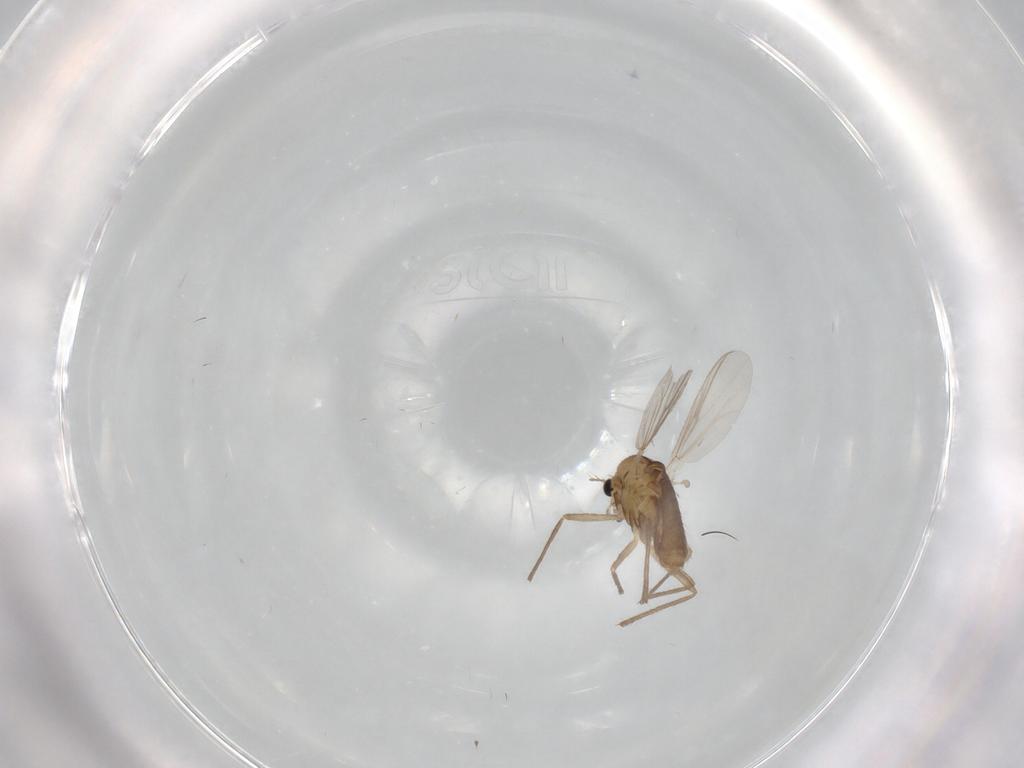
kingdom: Animalia
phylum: Arthropoda
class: Insecta
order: Diptera
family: Chironomidae
